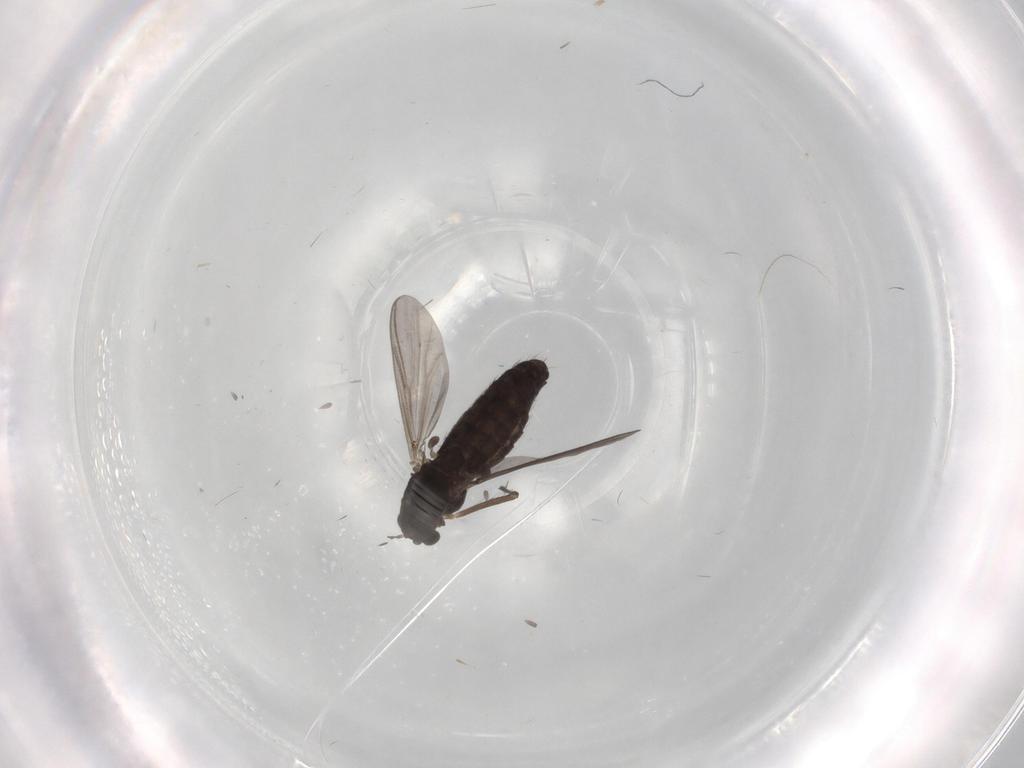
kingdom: Animalia
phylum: Arthropoda
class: Insecta
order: Diptera
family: Chironomidae
